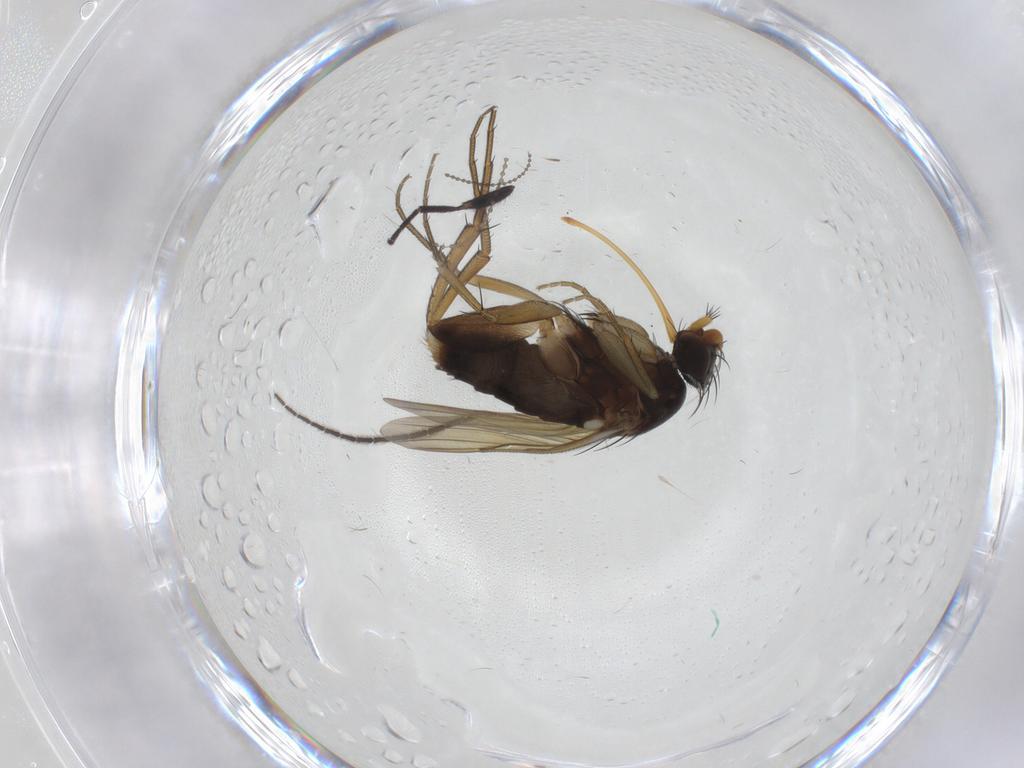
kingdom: Animalia
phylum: Arthropoda
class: Insecta
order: Diptera
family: Phoridae
